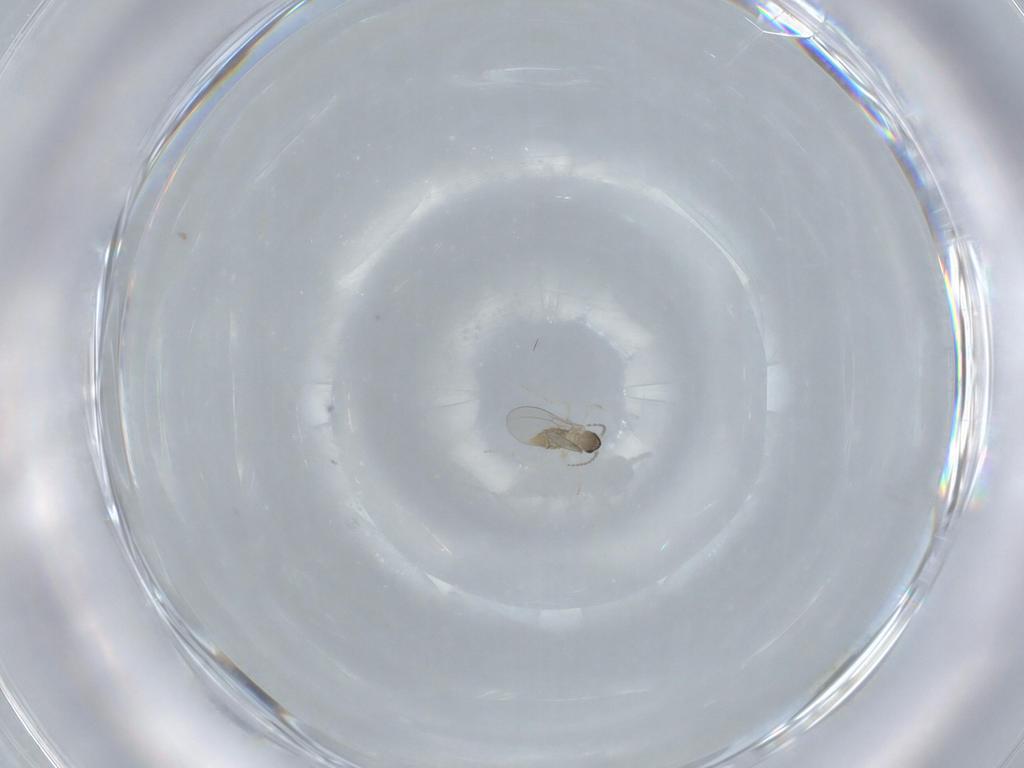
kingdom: Animalia
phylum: Arthropoda
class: Insecta
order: Diptera
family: Cecidomyiidae
